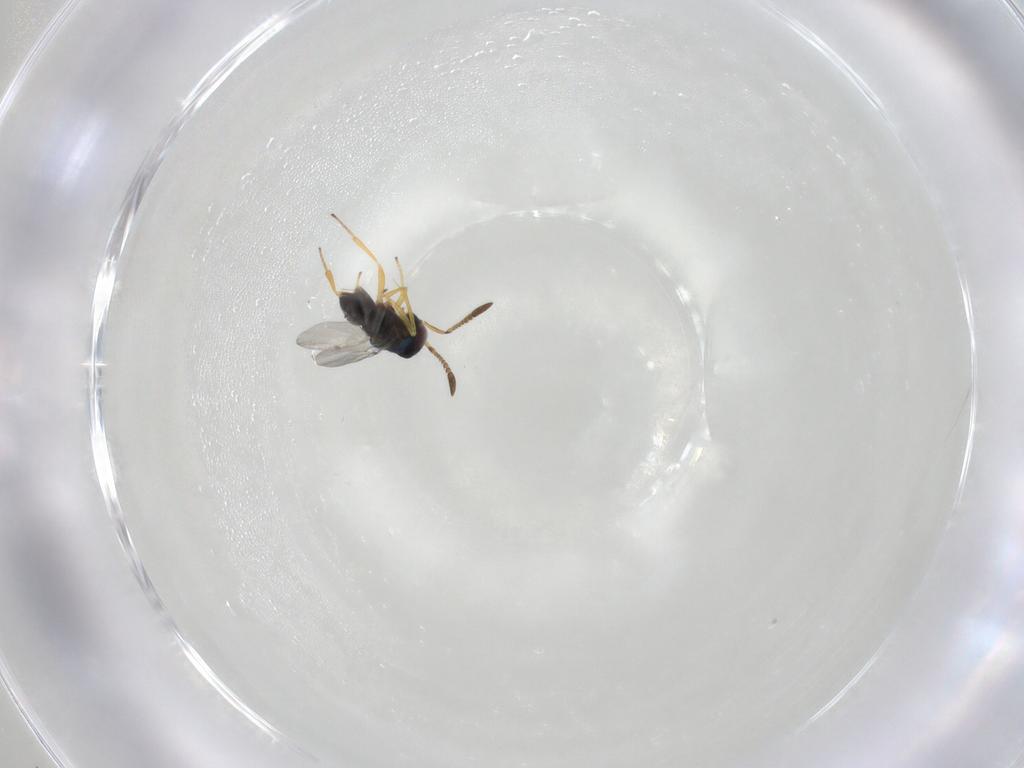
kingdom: Animalia
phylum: Arthropoda
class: Insecta
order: Hymenoptera
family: Encyrtidae
